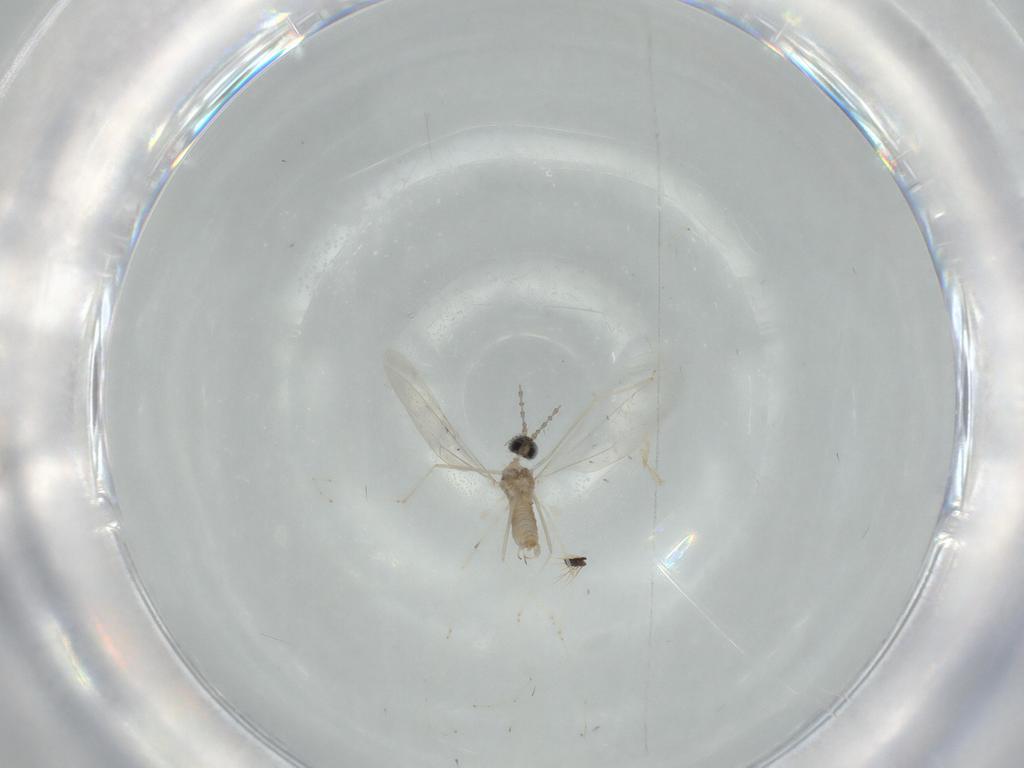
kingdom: Animalia
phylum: Arthropoda
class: Insecta
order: Diptera
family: Cecidomyiidae
